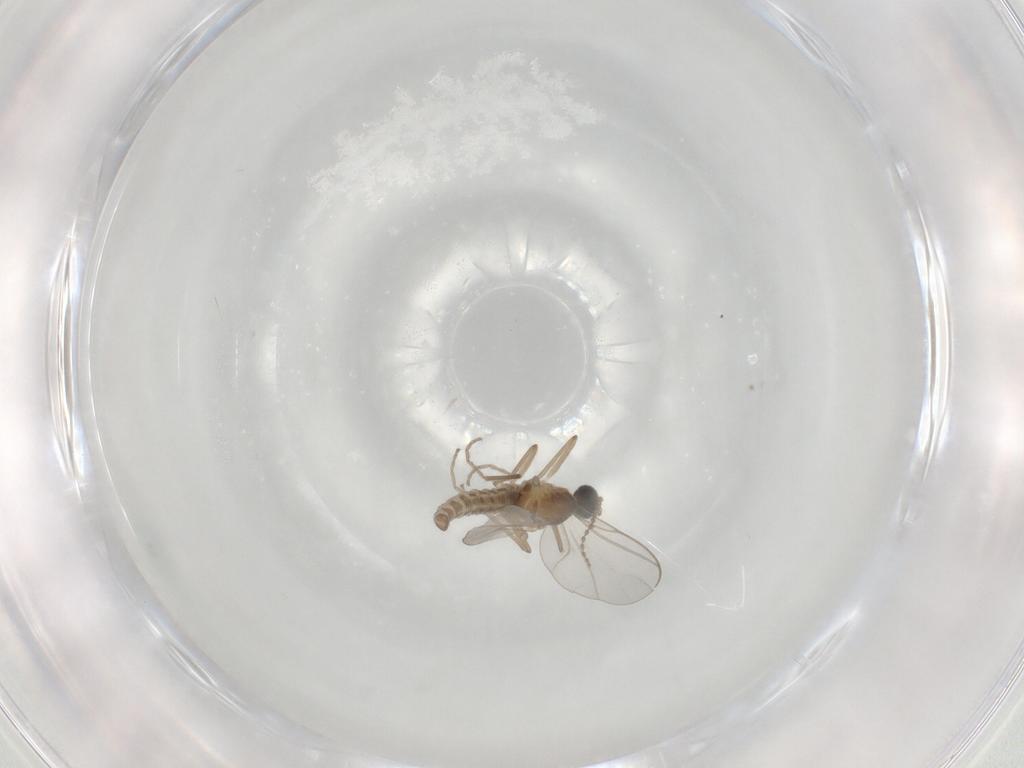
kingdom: Animalia
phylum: Arthropoda
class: Insecta
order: Diptera
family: Cecidomyiidae
